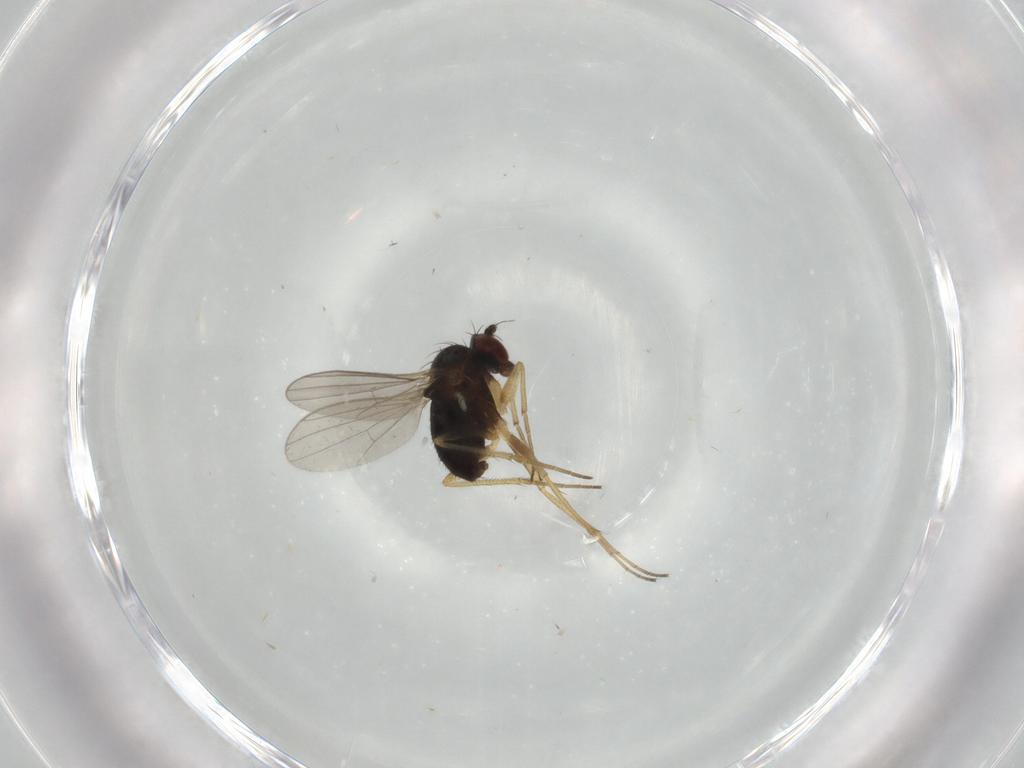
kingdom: Animalia
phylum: Arthropoda
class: Insecta
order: Diptera
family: Dolichopodidae
